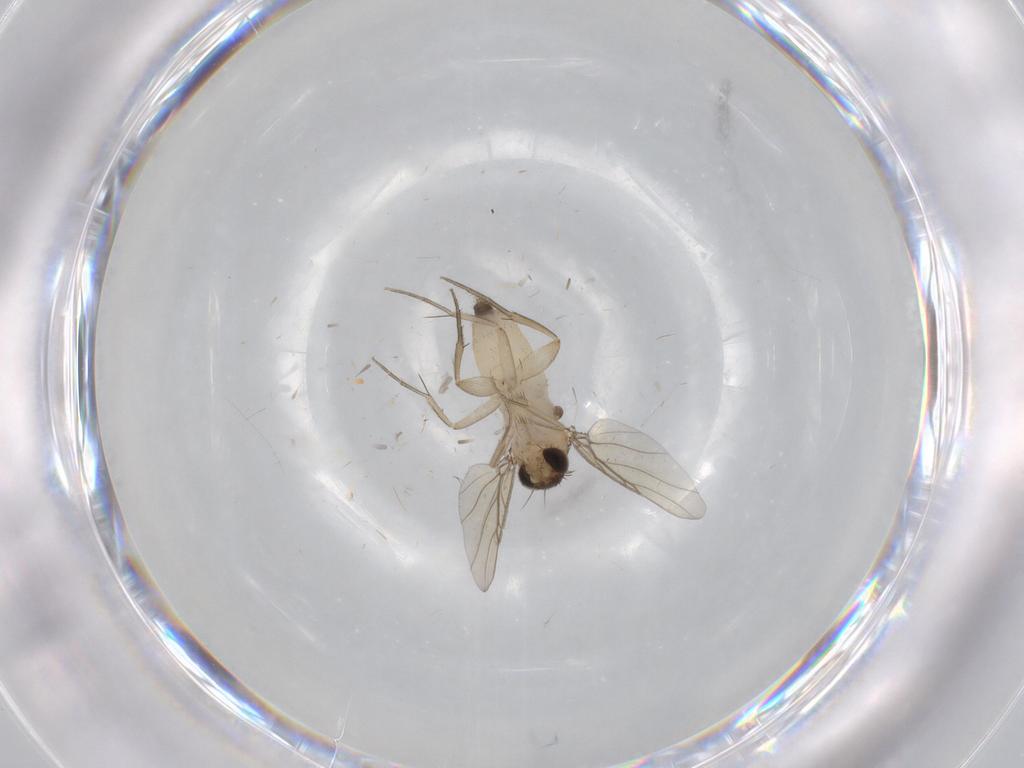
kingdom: Animalia
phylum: Arthropoda
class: Insecta
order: Diptera
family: Phoridae
